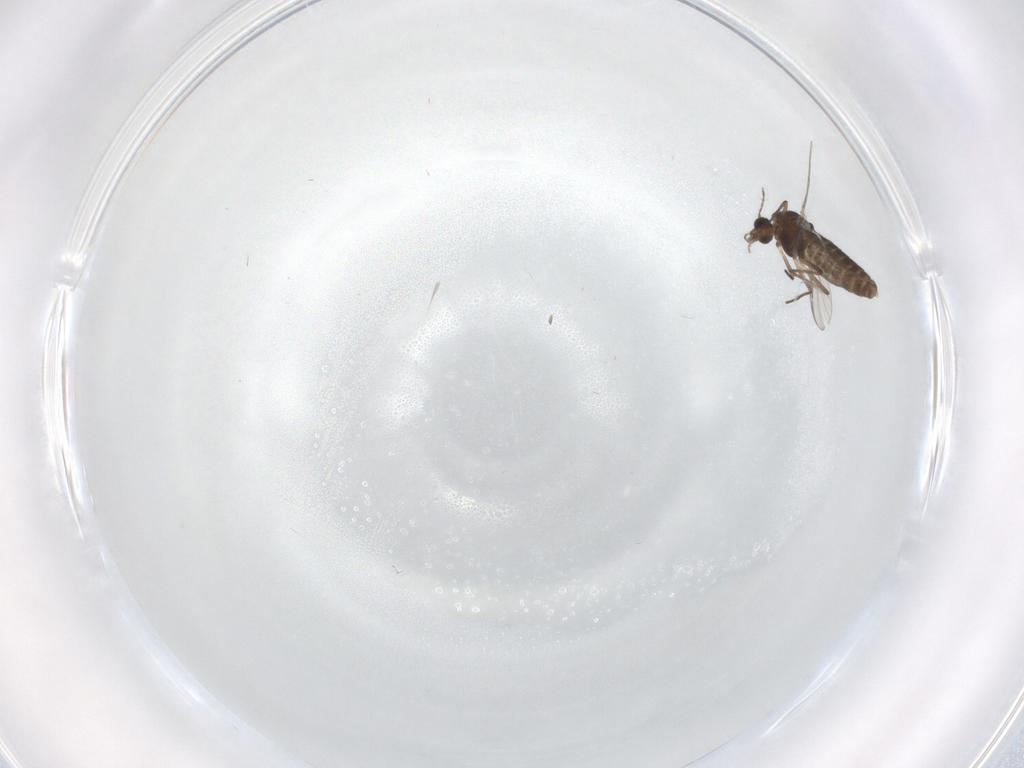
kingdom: Animalia
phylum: Arthropoda
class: Insecta
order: Diptera
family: Chironomidae
